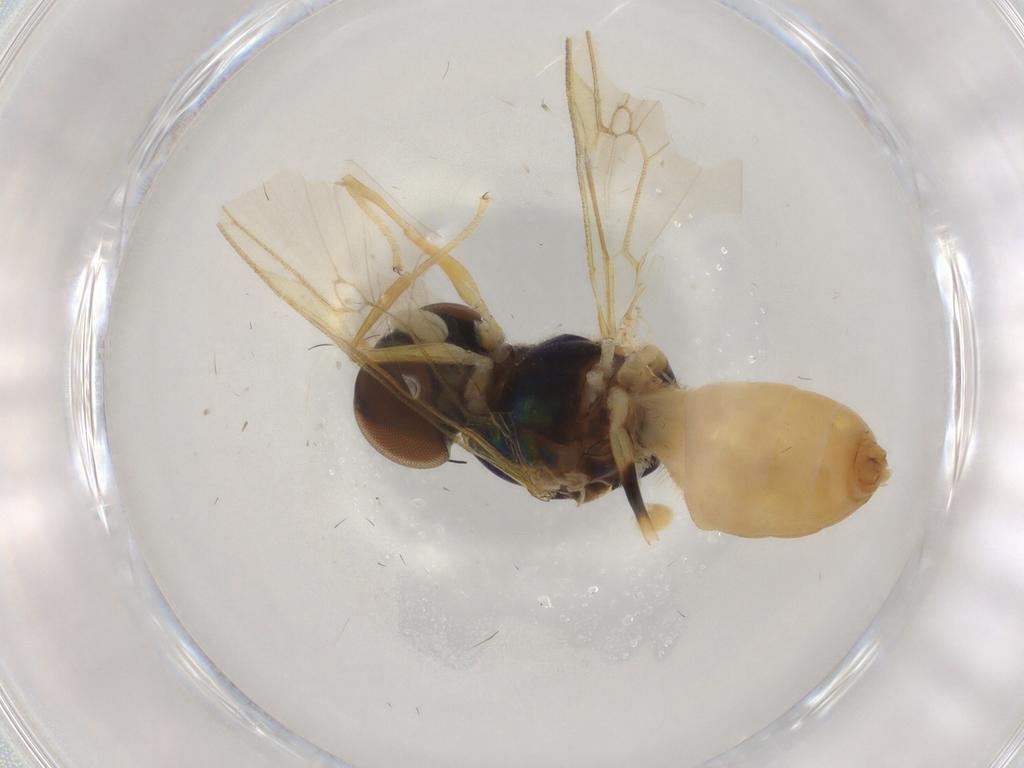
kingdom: Animalia
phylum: Arthropoda
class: Insecta
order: Diptera
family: Stratiomyidae
